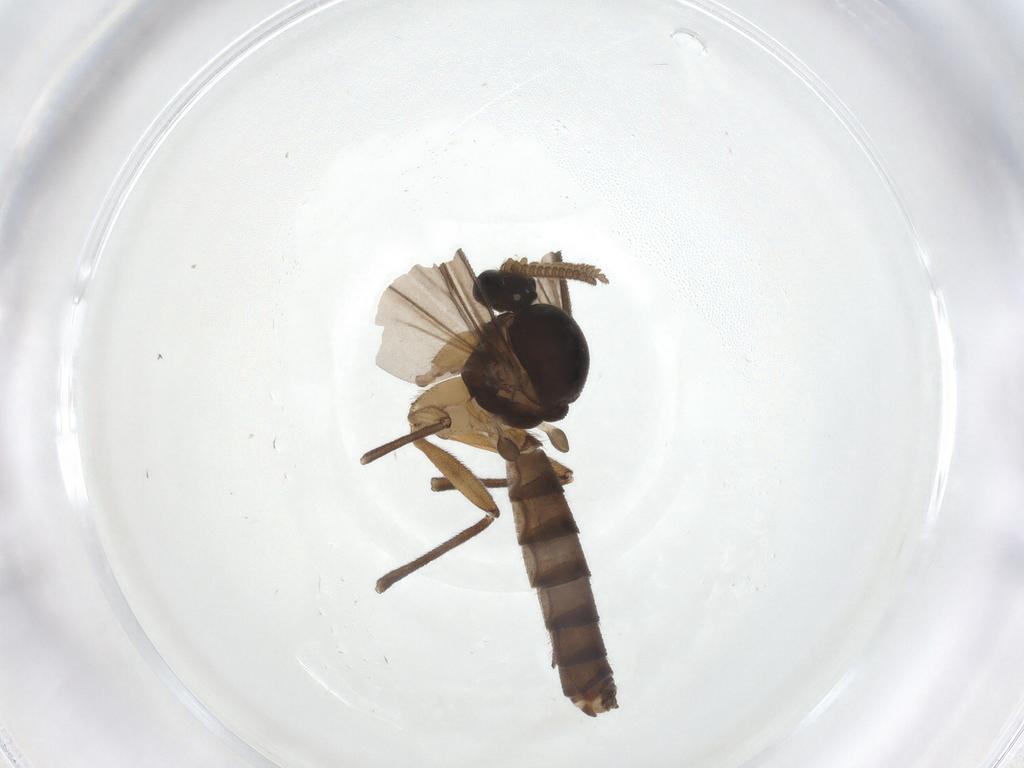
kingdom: Animalia
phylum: Arthropoda
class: Insecta
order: Diptera
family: Mycetophilidae
